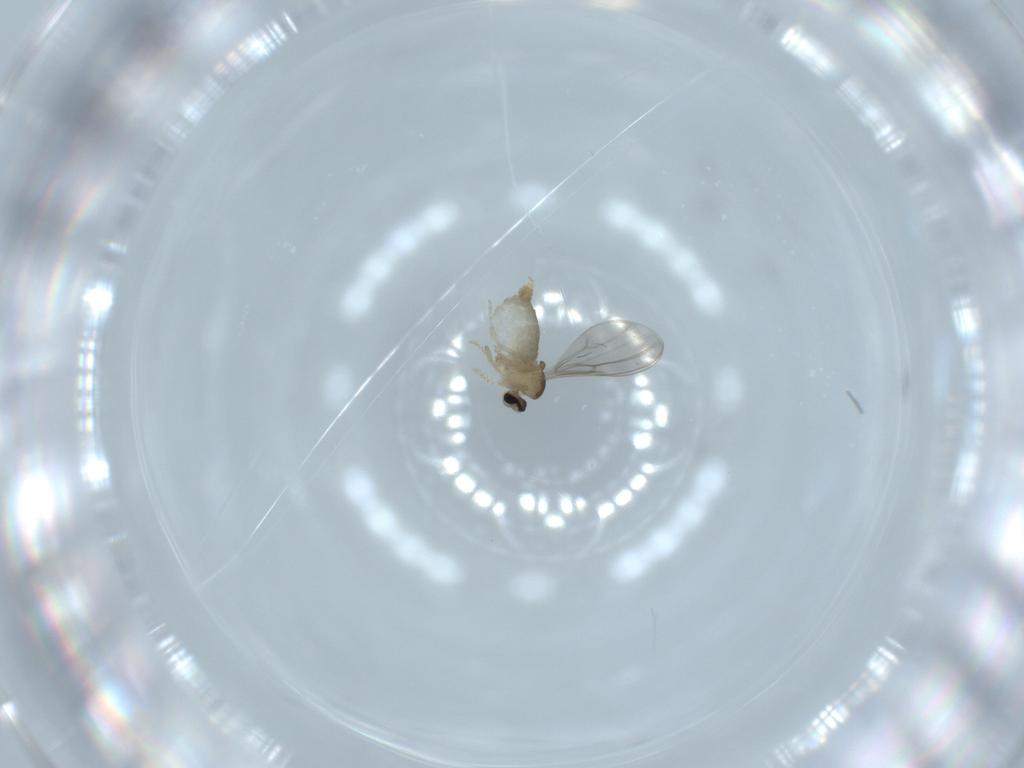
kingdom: Animalia
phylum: Arthropoda
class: Insecta
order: Diptera
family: Cecidomyiidae
